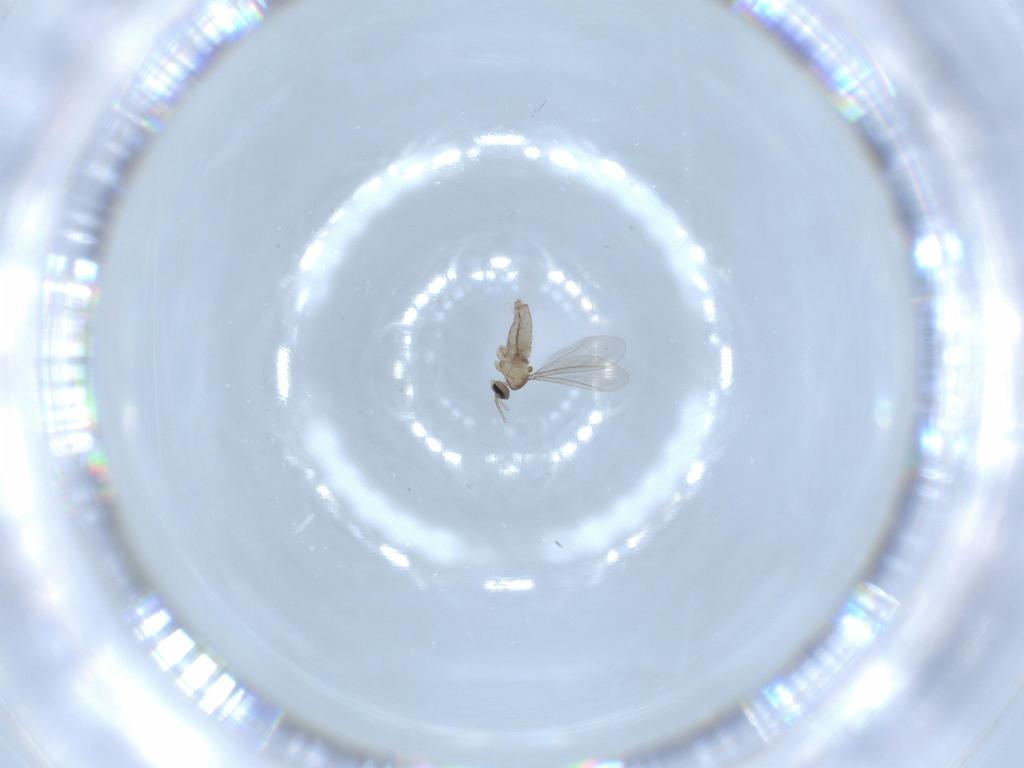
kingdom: Animalia
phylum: Arthropoda
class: Insecta
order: Diptera
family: Cecidomyiidae
